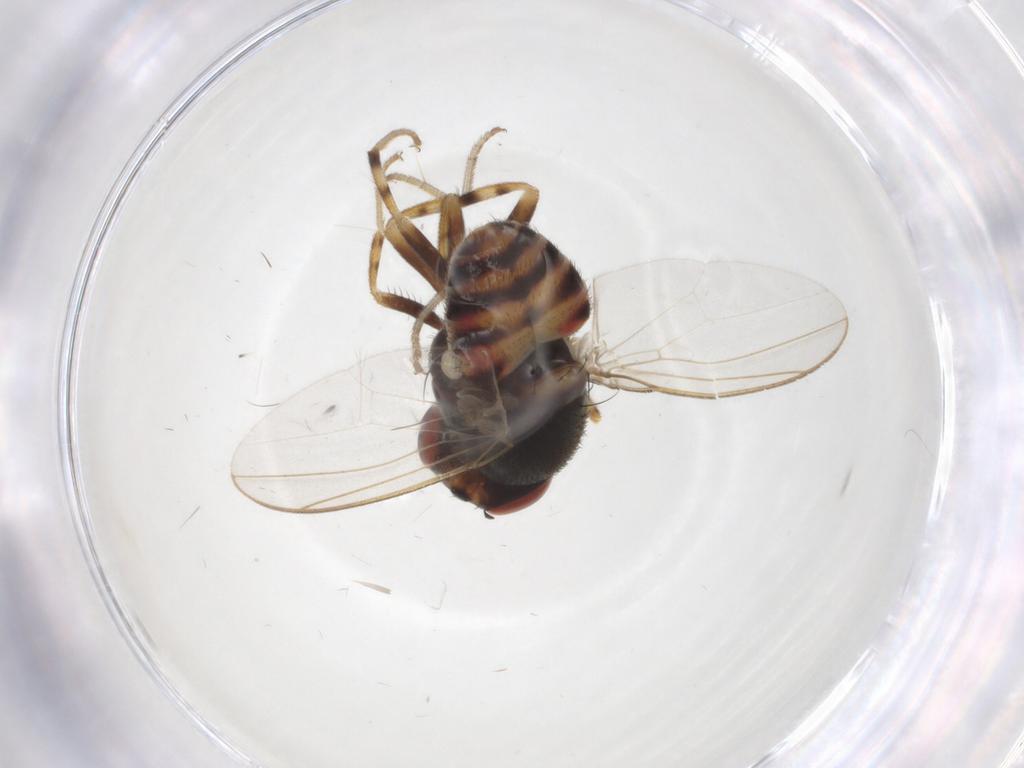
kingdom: Animalia
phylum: Arthropoda
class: Insecta
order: Diptera
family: Drosophilidae
